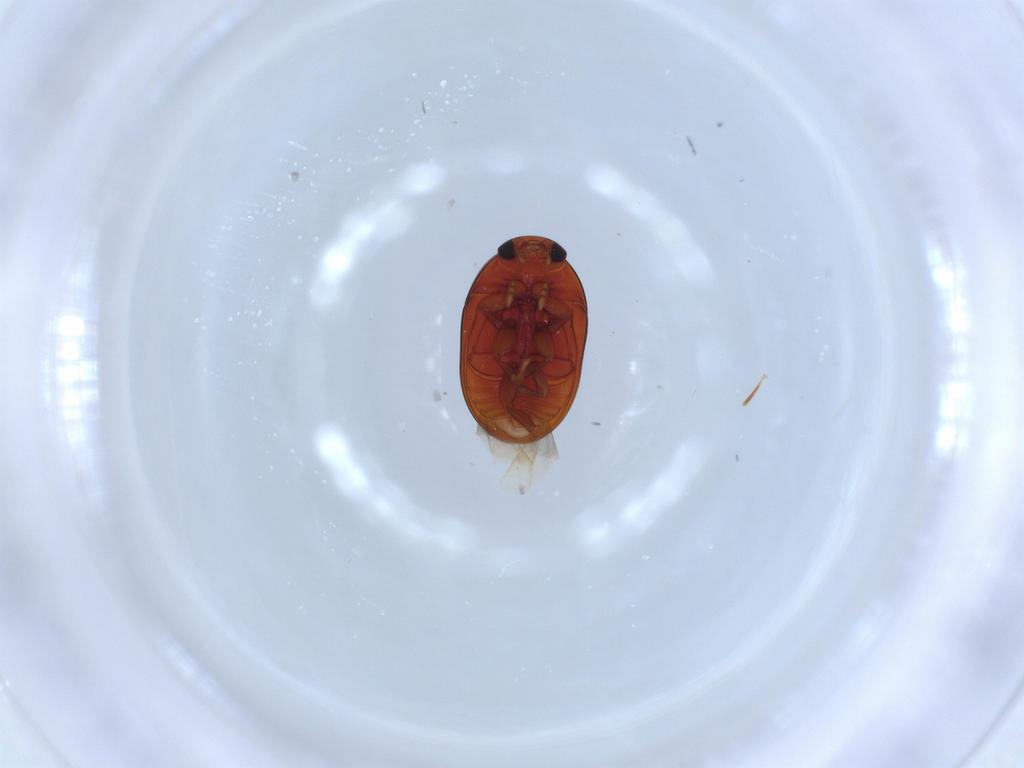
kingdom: Animalia
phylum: Arthropoda
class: Insecta
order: Coleoptera
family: Phalacridae
